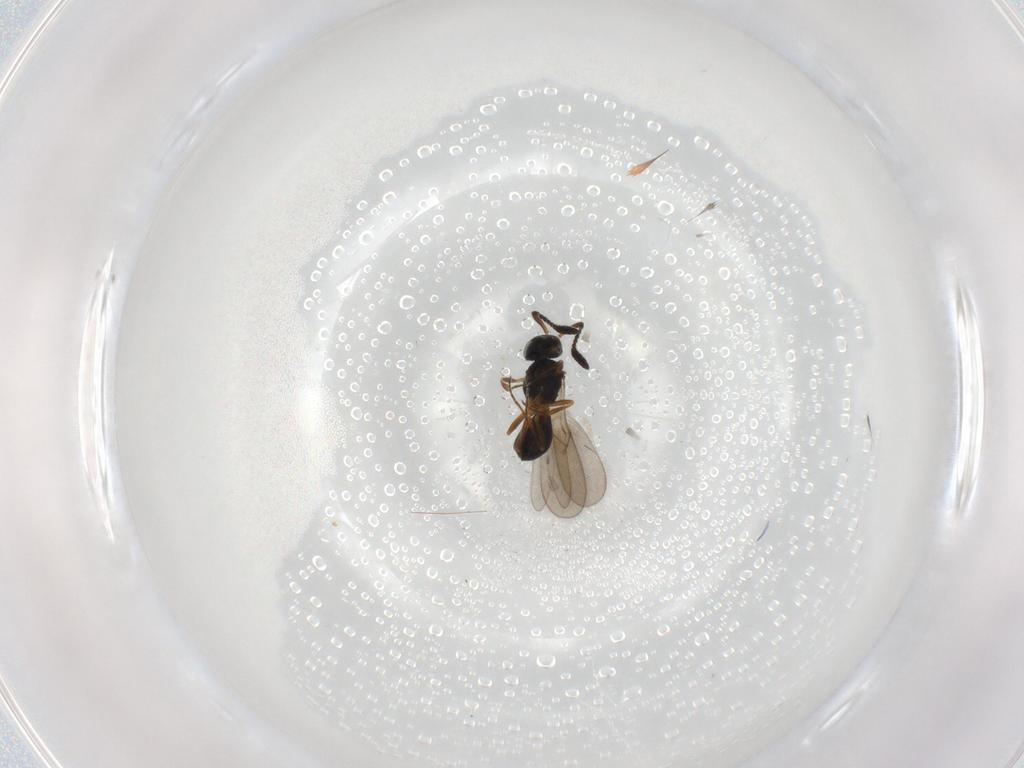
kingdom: Animalia
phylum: Arthropoda
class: Insecta
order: Hymenoptera
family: Scelionidae
